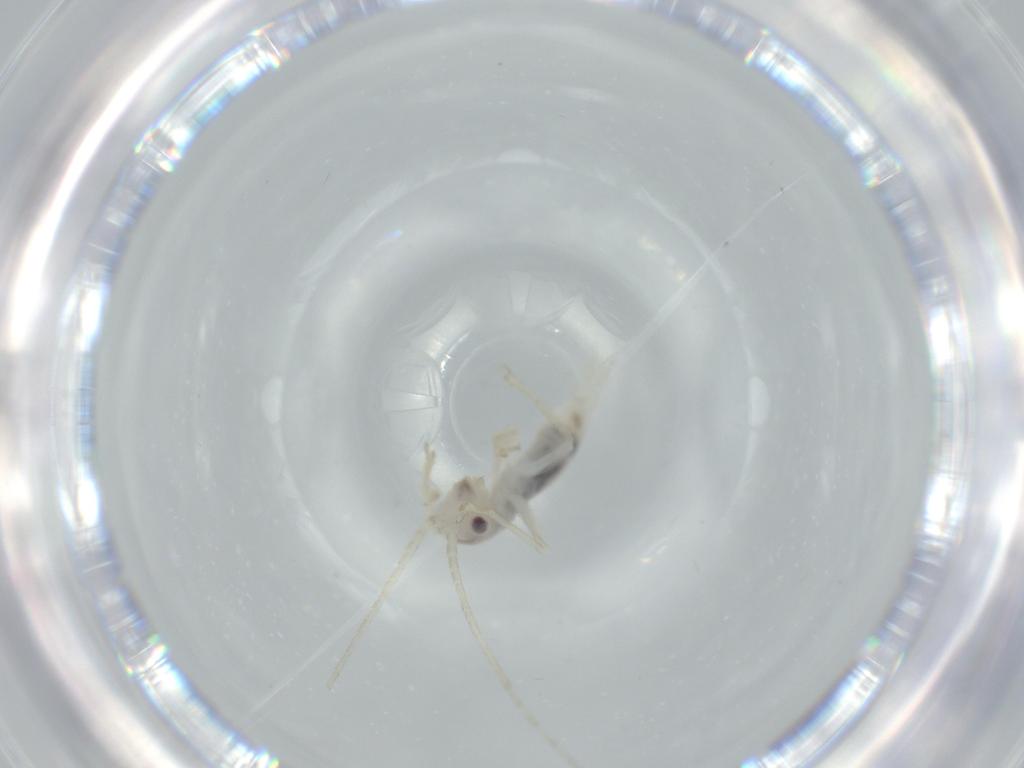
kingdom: Animalia
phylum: Arthropoda
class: Insecta
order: Orthoptera
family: Trigonidiidae
